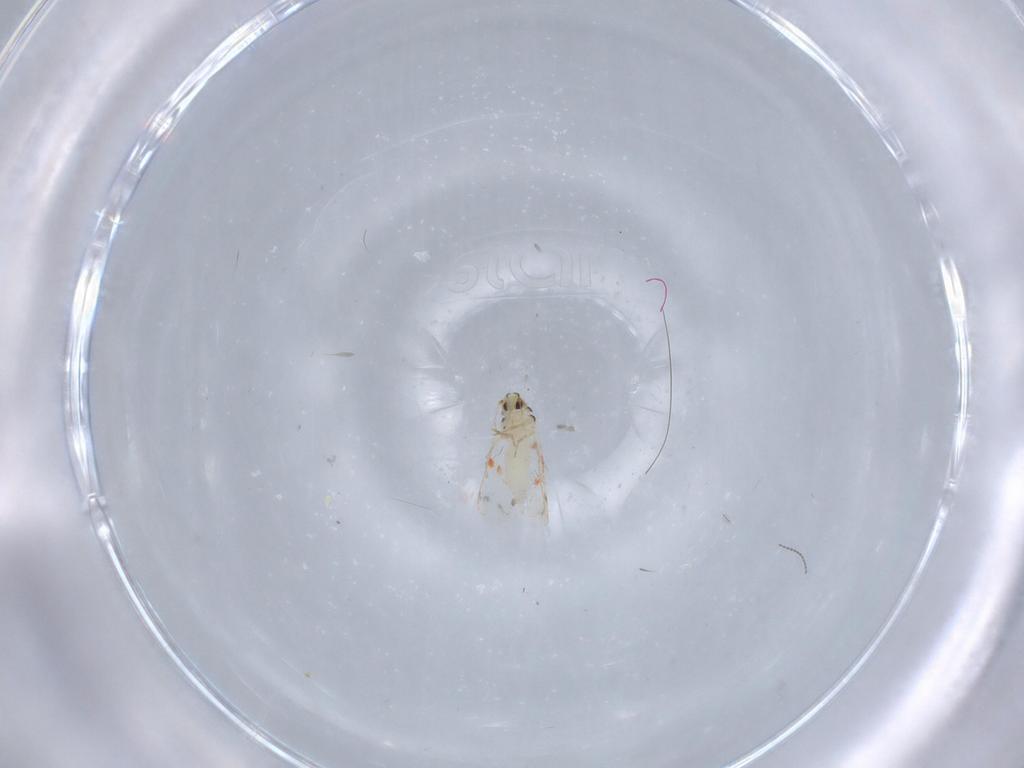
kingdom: Animalia
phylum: Arthropoda
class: Insecta
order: Hemiptera
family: Aleyrodidae
